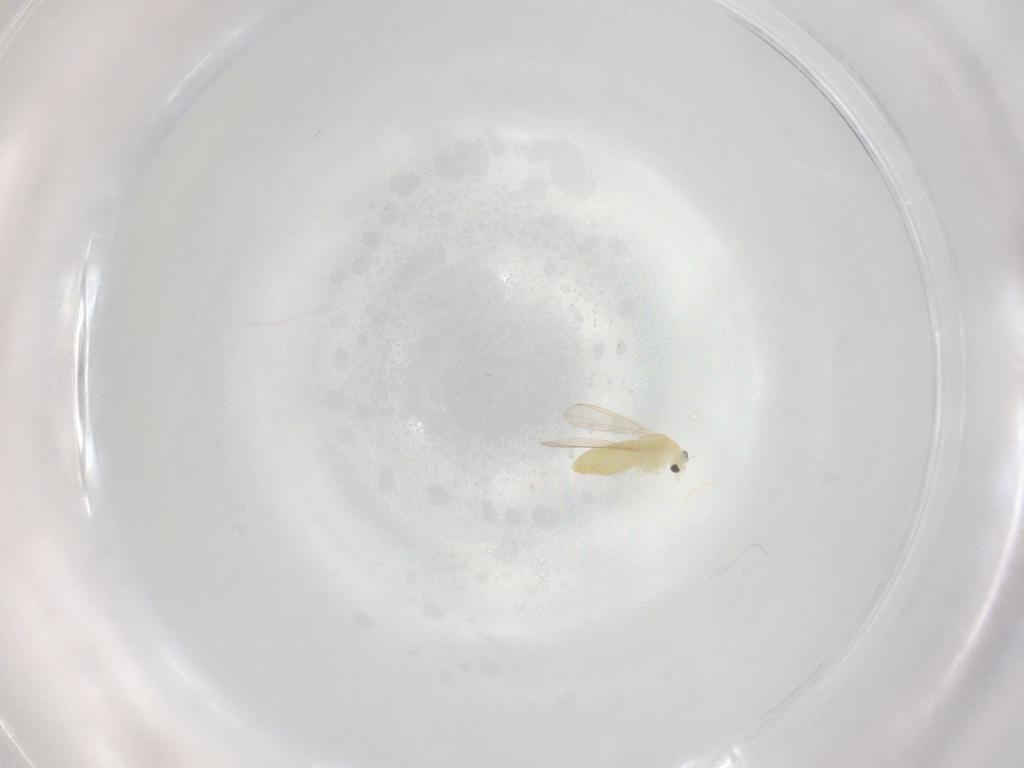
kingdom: Animalia
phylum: Arthropoda
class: Insecta
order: Diptera
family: Chironomidae
